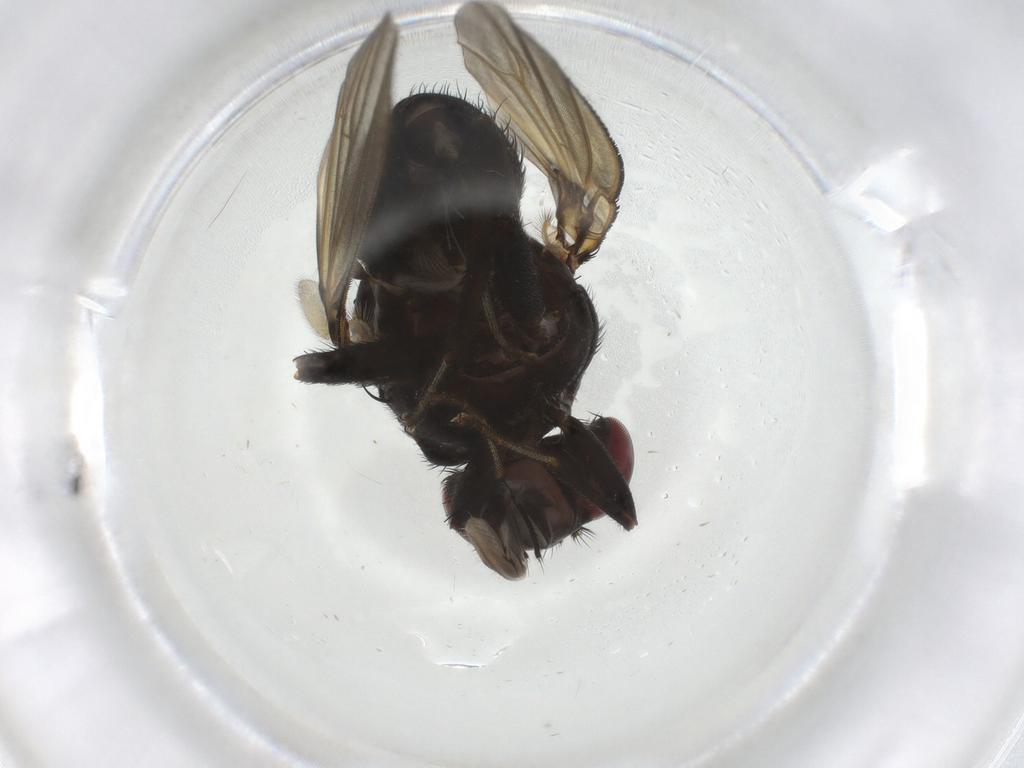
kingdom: Animalia
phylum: Arthropoda
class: Insecta
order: Diptera
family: Lauxaniidae
